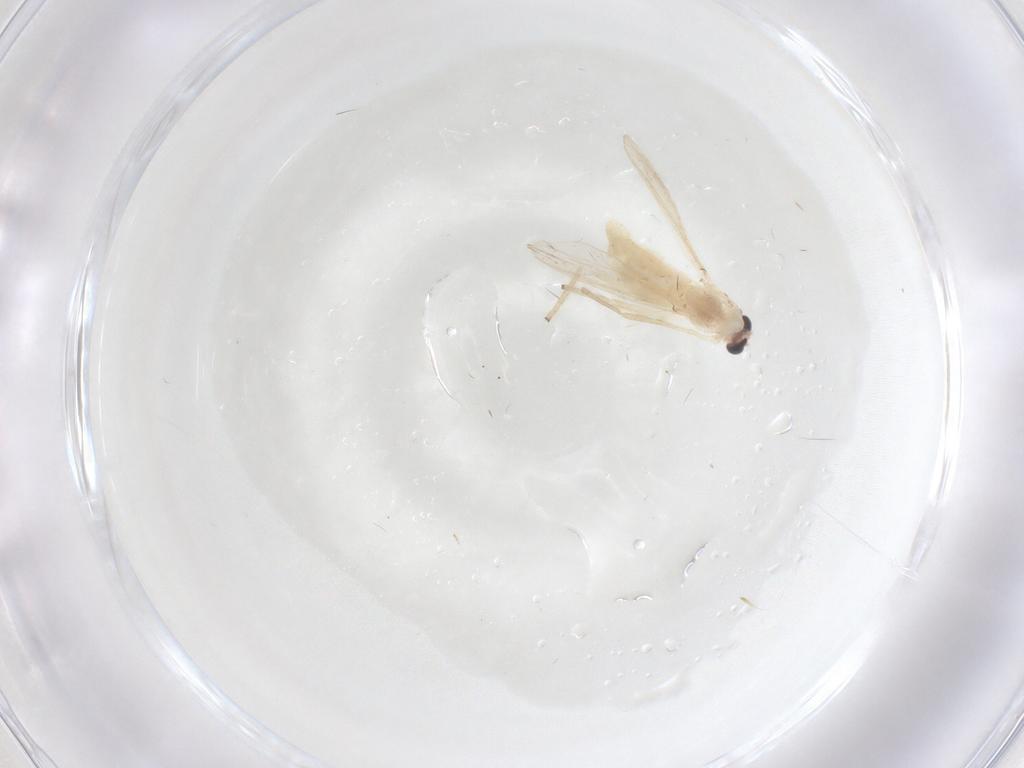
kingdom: Animalia
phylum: Arthropoda
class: Insecta
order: Diptera
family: Chironomidae
